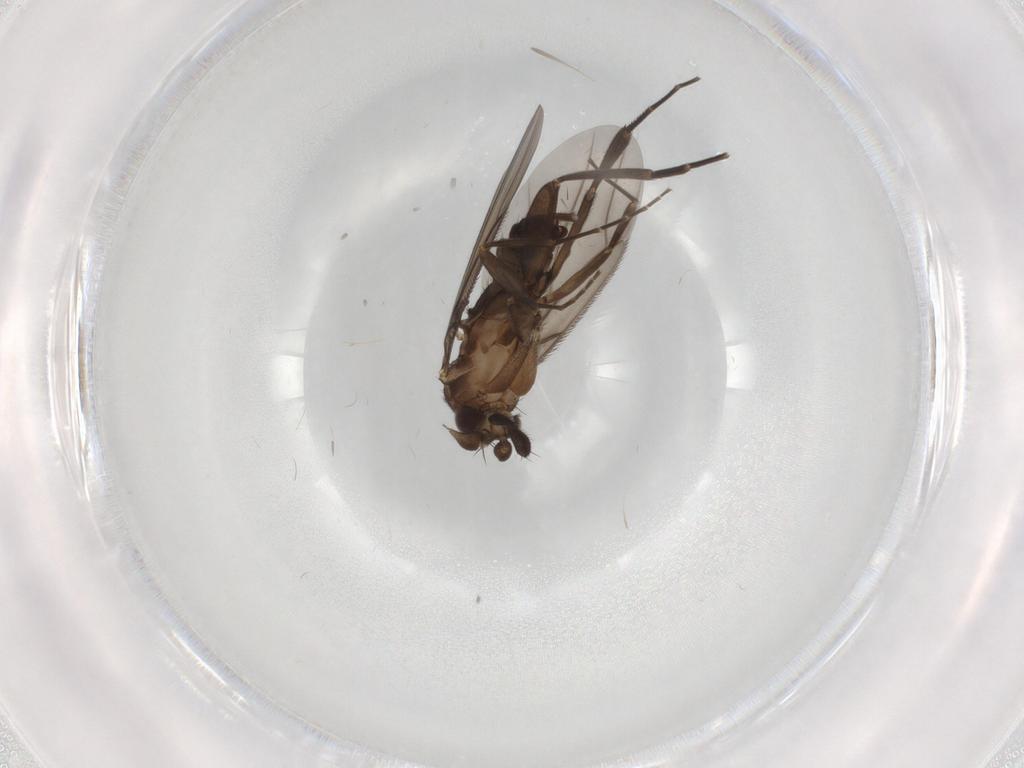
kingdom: Animalia
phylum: Arthropoda
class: Insecta
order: Diptera
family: Phoridae
